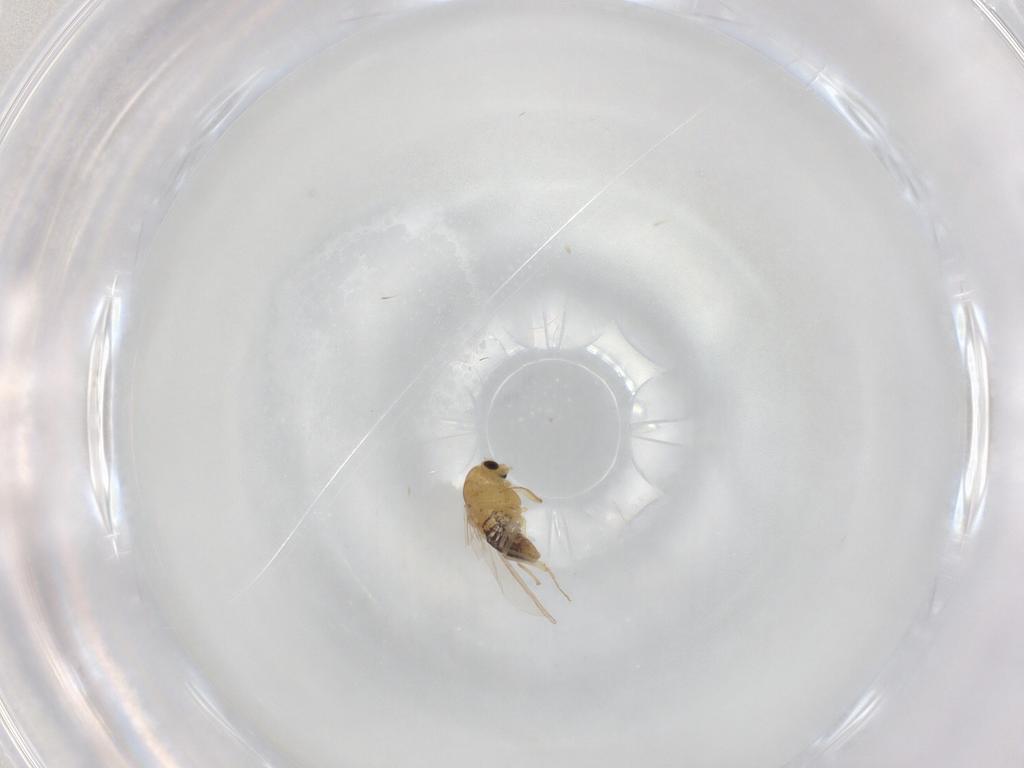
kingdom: Animalia
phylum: Arthropoda
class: Insecta
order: Diptera
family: Chironomidae
